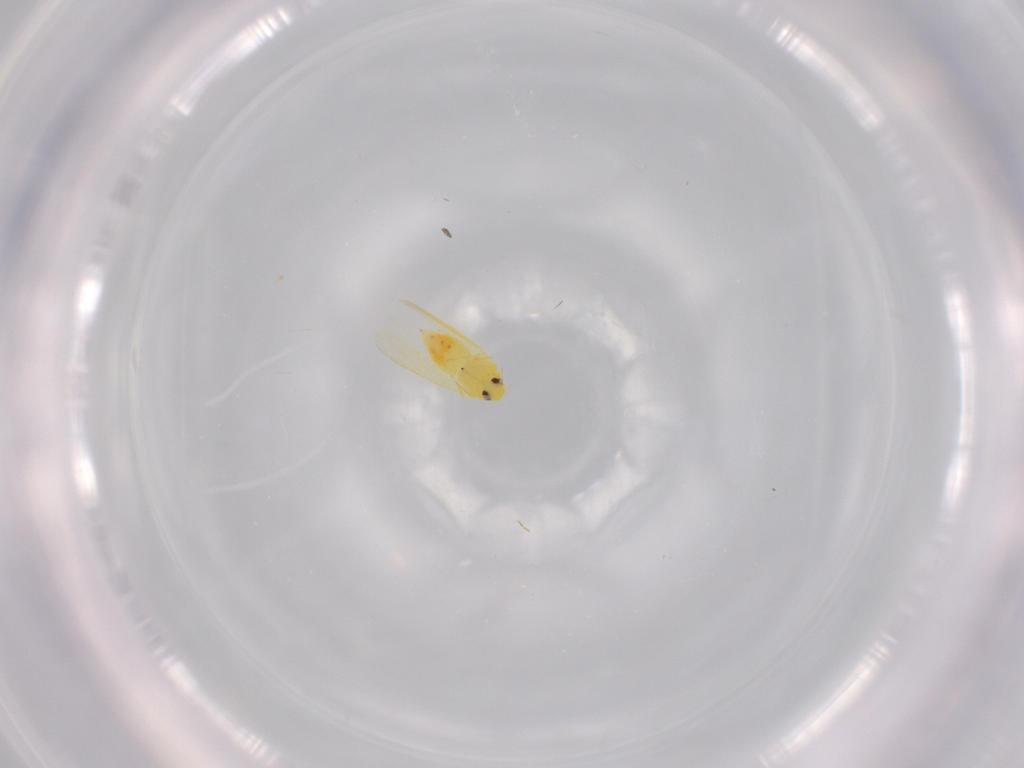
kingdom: Animalia
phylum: Arthropoda
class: Insecta
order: Hemiptera
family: Aleyrodidae
